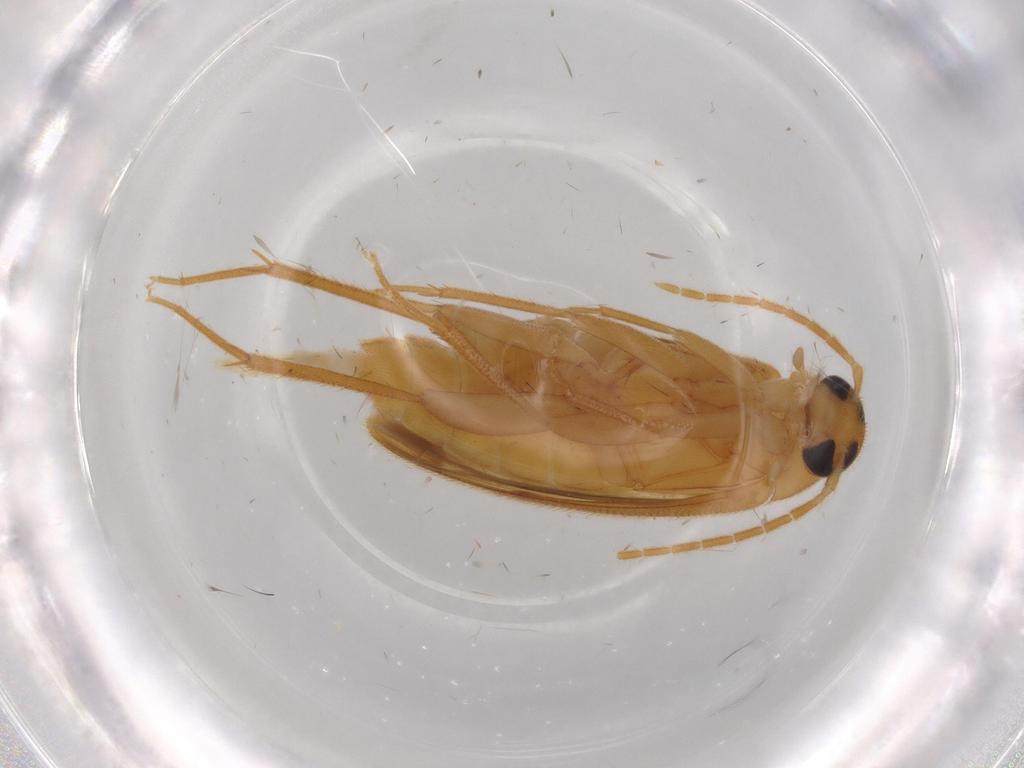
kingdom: Animalia
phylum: Arthropoda
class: Insecta
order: Coleoptera
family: Scraptiidae
